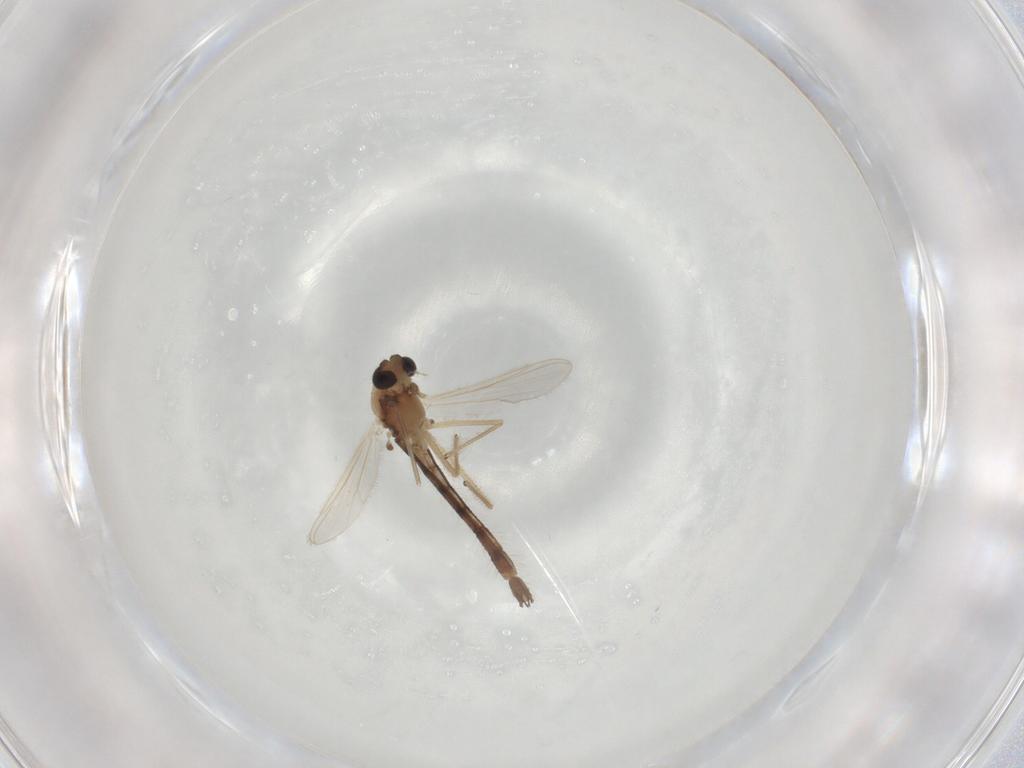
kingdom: Animalia
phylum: Arthropoda
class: Insecta
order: Diptera
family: Chironomidae
